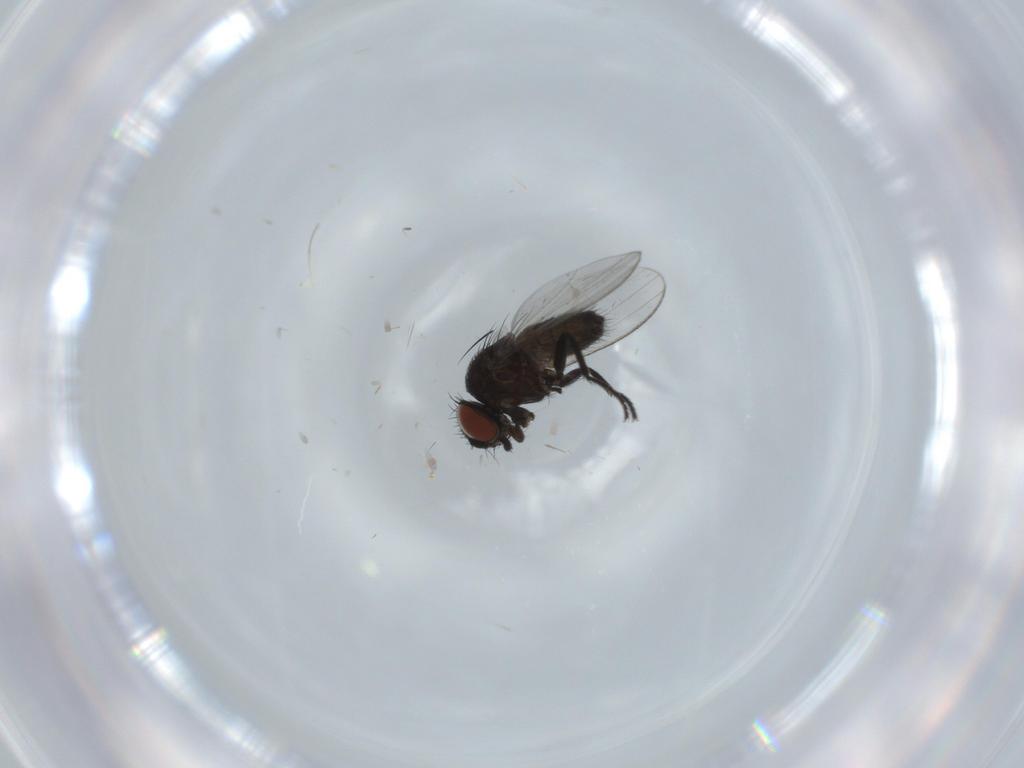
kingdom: Animalia
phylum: Arthropoda
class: Insecta
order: Diptera
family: Milichiidae
